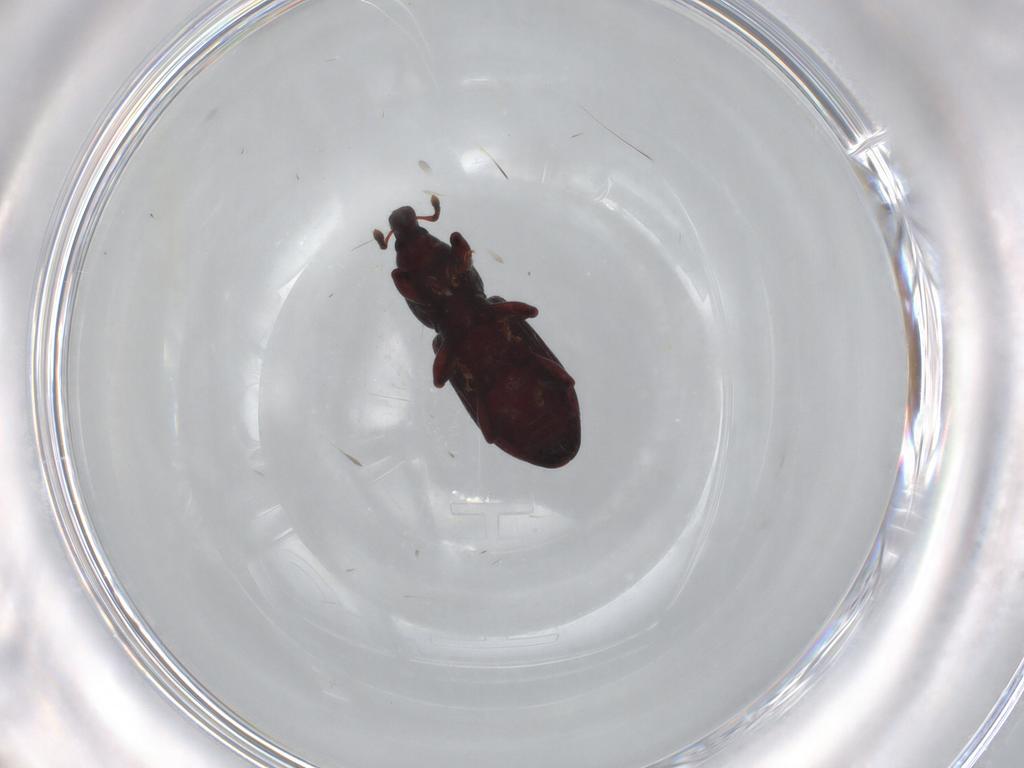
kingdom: Animalia
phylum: Arthropoda
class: Insecta
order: Coleoptera
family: Curculionidae
